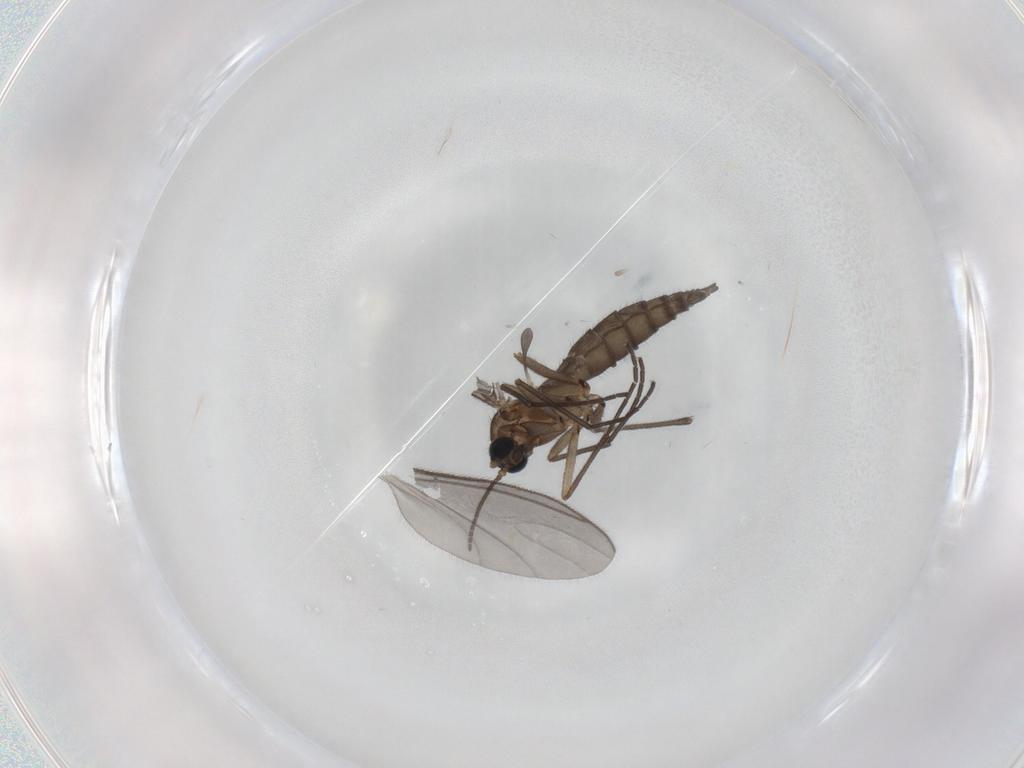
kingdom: Animalia
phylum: Arthropoda
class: Insecta
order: Diptera
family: Sciaridae
